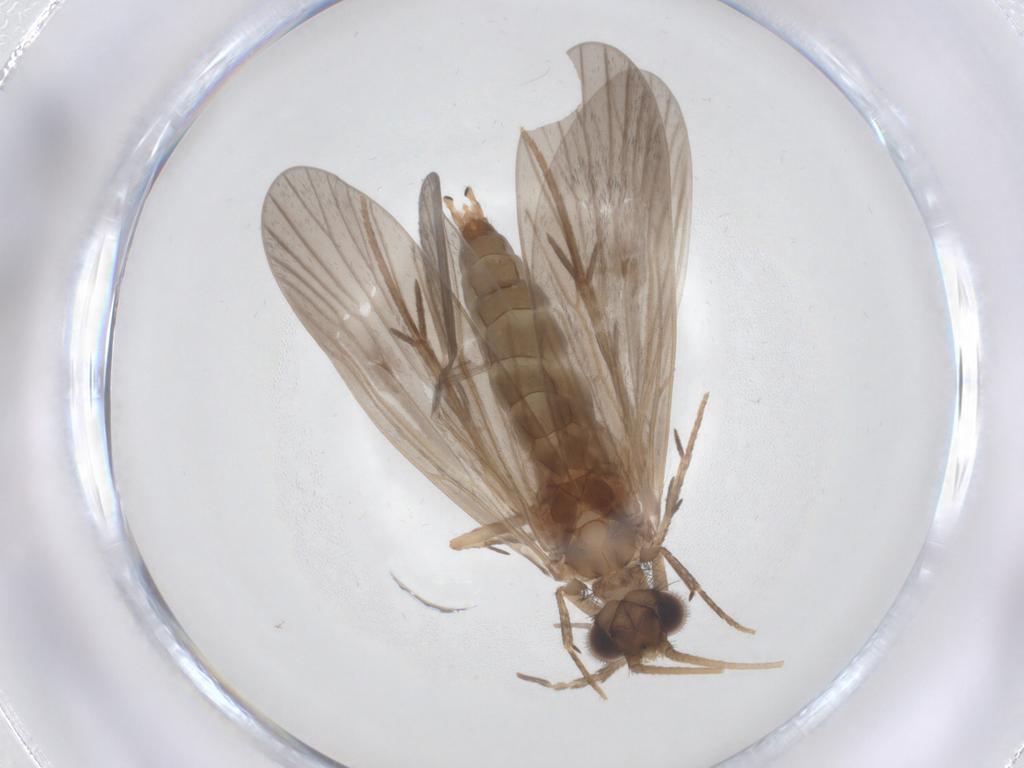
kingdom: Animalia
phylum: Arthropoda
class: Insecta
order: Trichoptera
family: Philopotamidae
